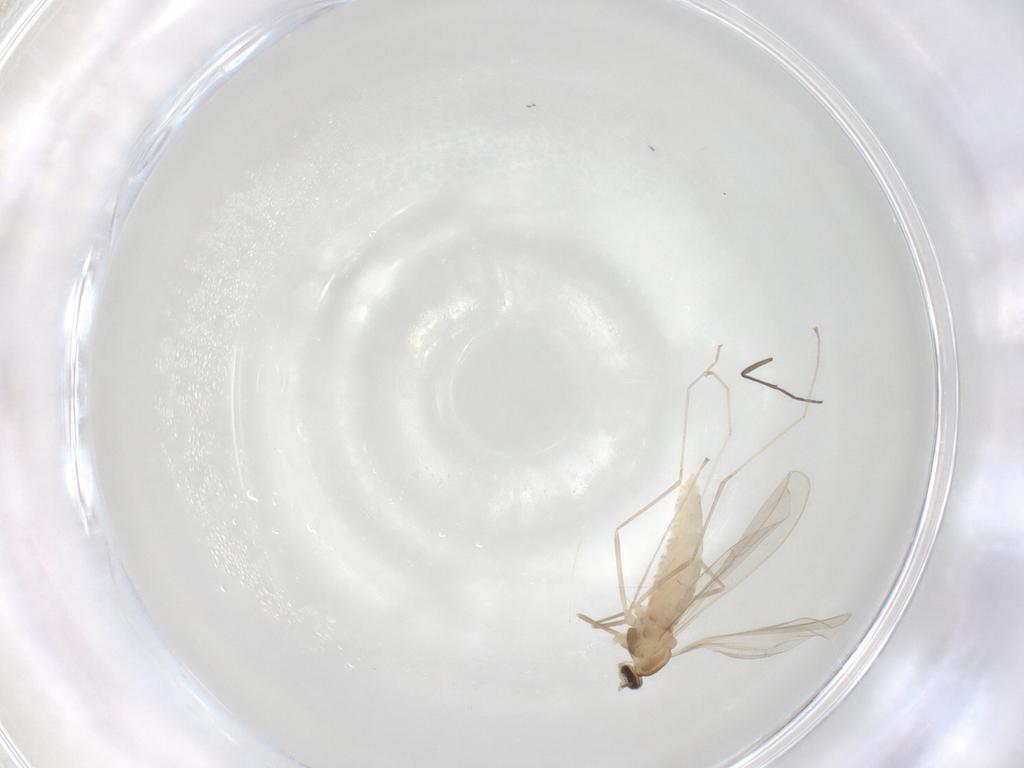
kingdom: Animalia
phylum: Arthropoda
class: Insecta
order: Diptera
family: Cecidomyiidae
